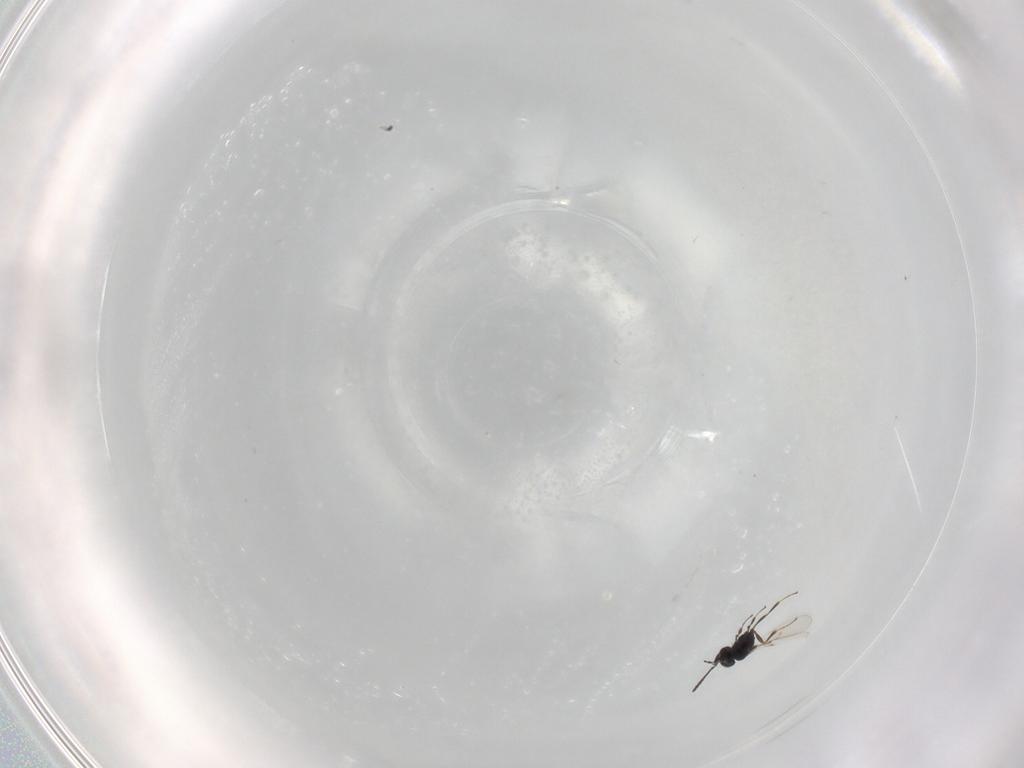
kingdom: Animalia
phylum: Arthropoda
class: Insecta
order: Hymenoptera
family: Scelionidae
